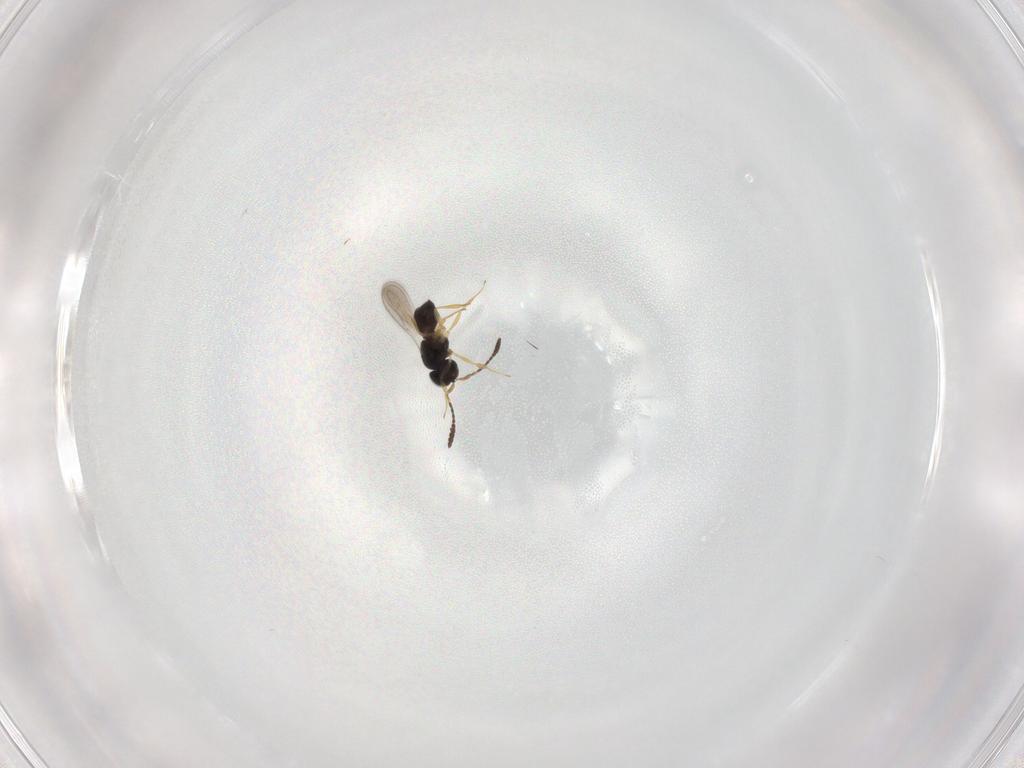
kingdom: Animalia
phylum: Arthropoda
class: Insecta
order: Hymenoptera
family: Scelionidae
